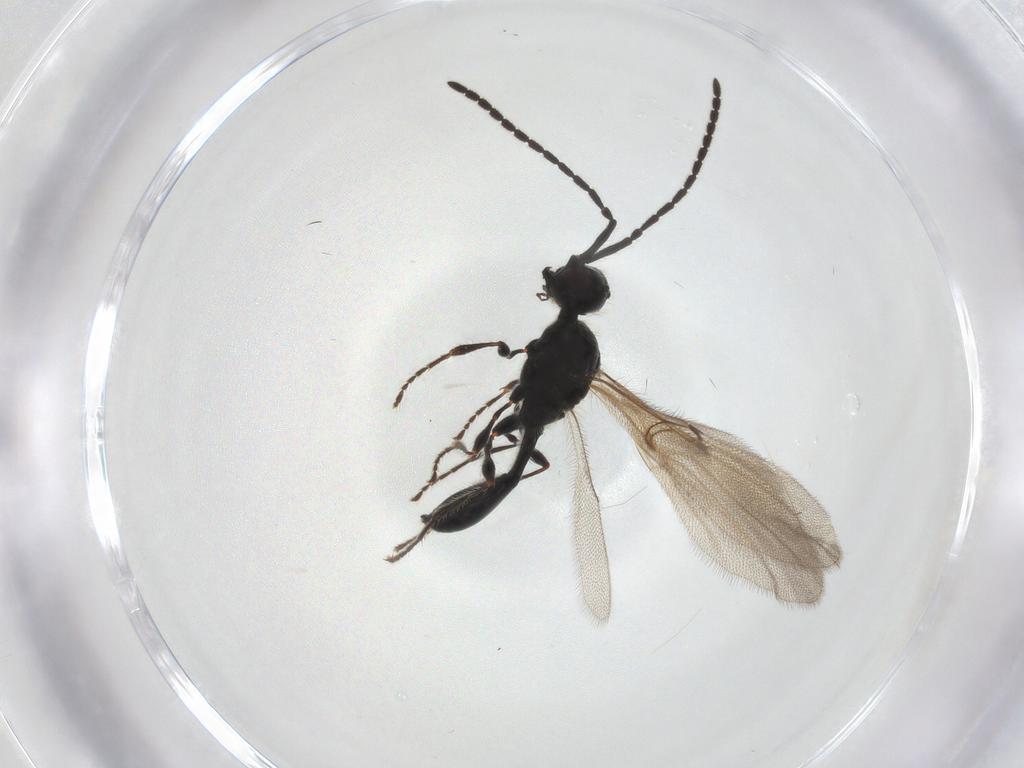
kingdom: Animalia
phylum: Arthropoda
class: Insecta
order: Hymenoptera
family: Diapriidae
